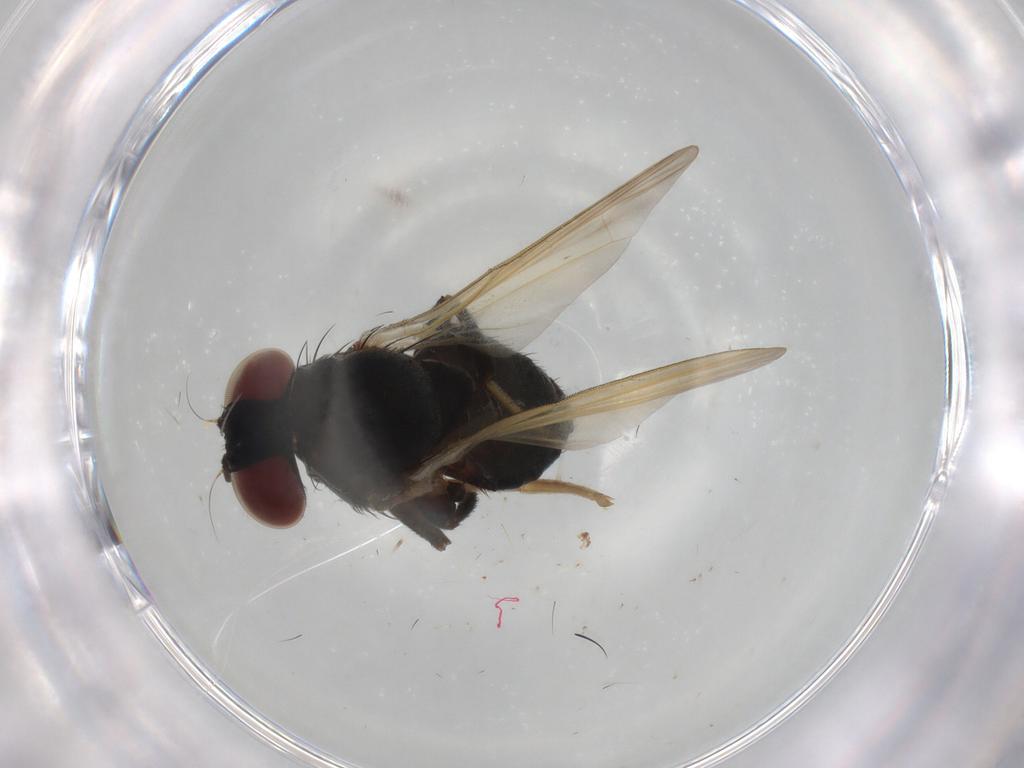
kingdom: Animalia
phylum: Arthropoda
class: Insecta
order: Diptera
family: Lonchaeidae
